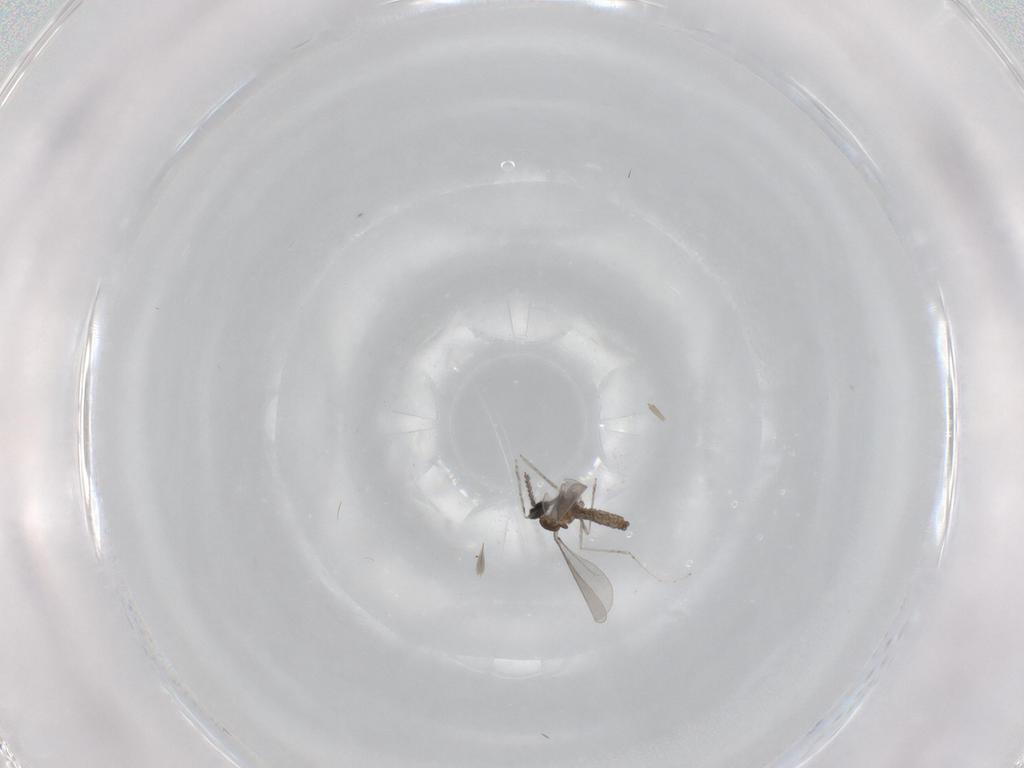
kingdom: Animalia
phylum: Arthropoda
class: Insecta
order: Diptera
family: Cecidomyiidae
